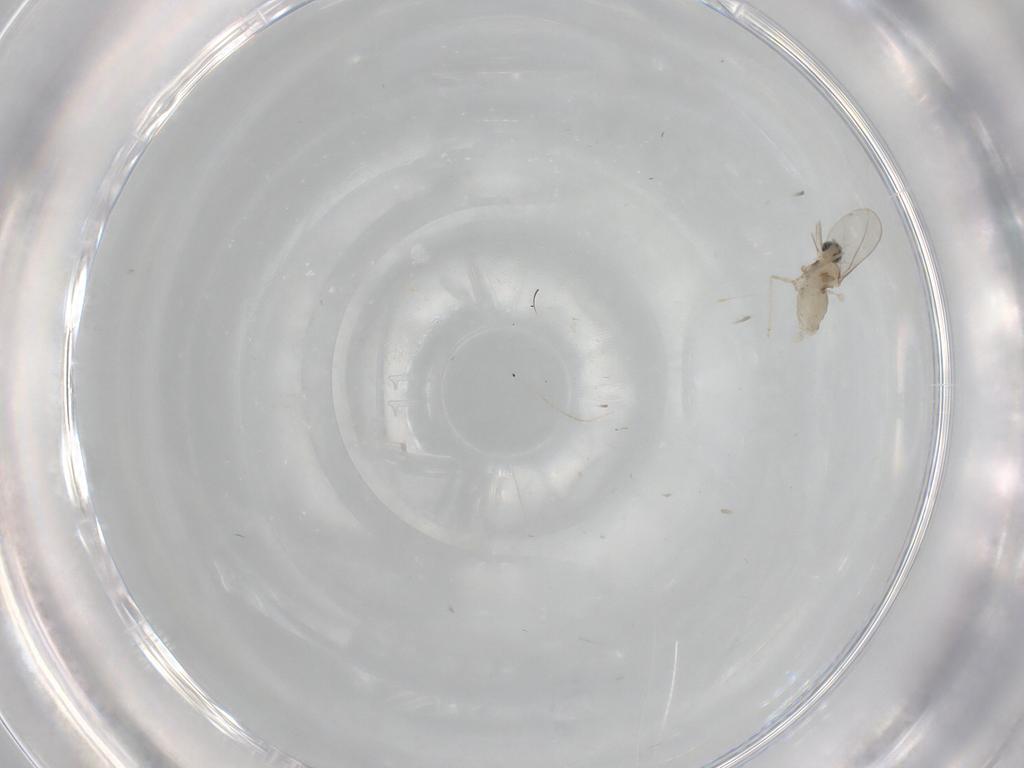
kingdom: Animalia
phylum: Arthropoda
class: Insecta
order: Diptera
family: Cecidomyiidae
